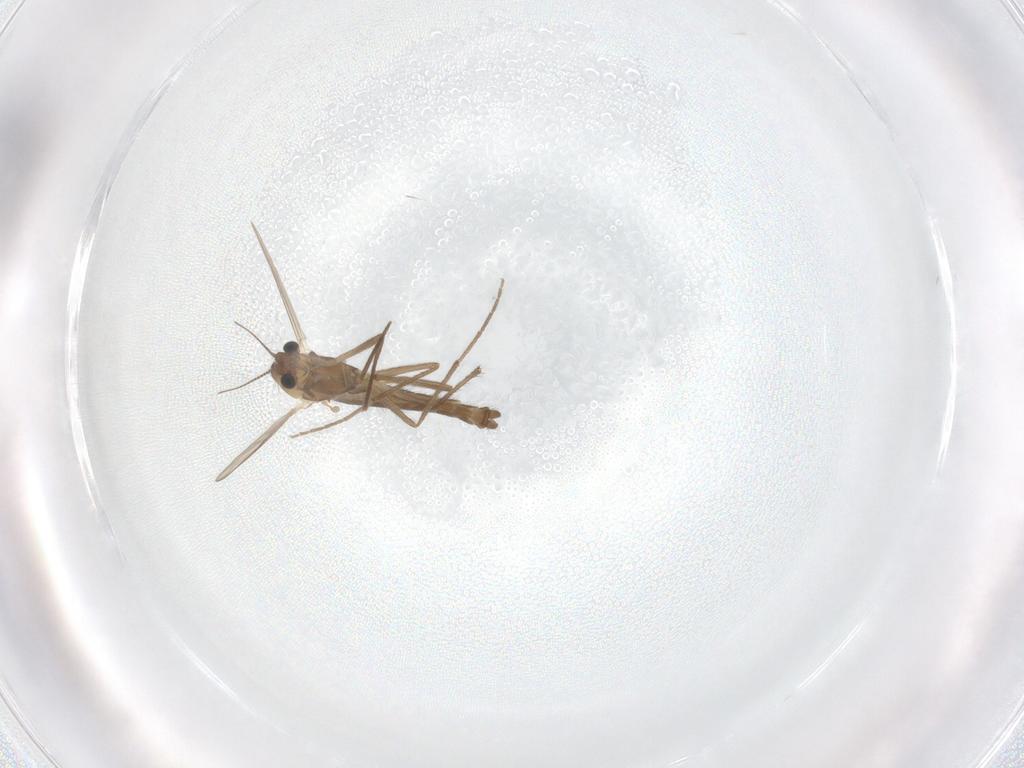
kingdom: Animalia
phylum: Arthropoda
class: Insecta
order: Diptera
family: Chironomidae
